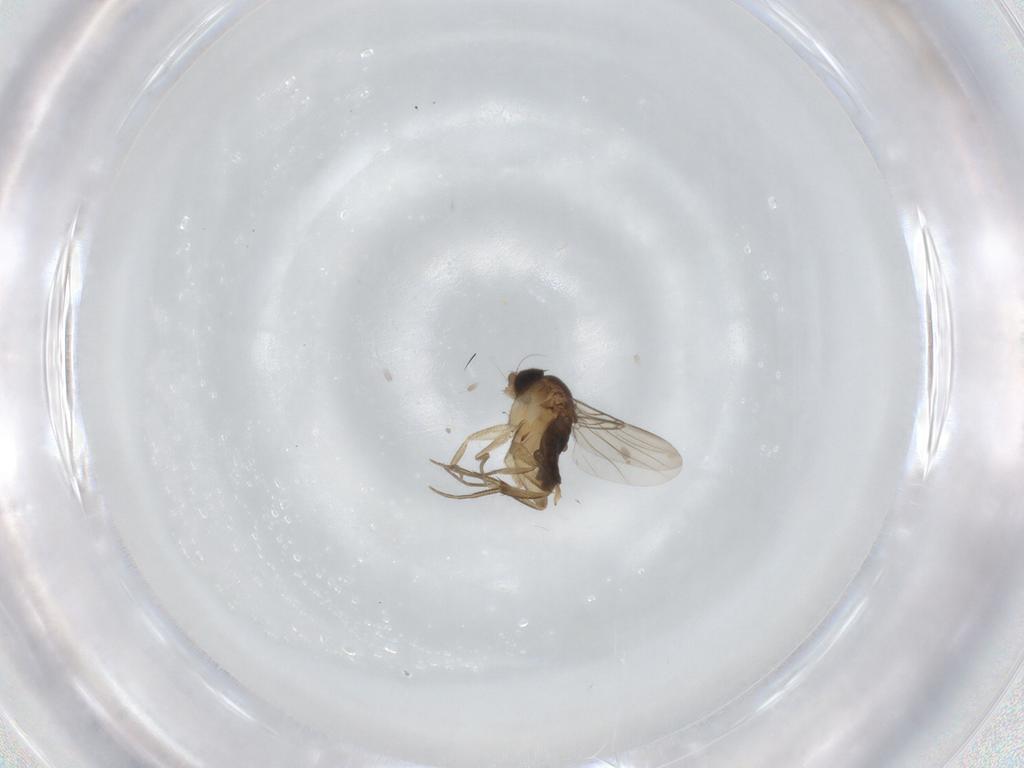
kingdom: Animalia
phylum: Arthropoda
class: Insecta
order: Diptera
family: Phoridae
